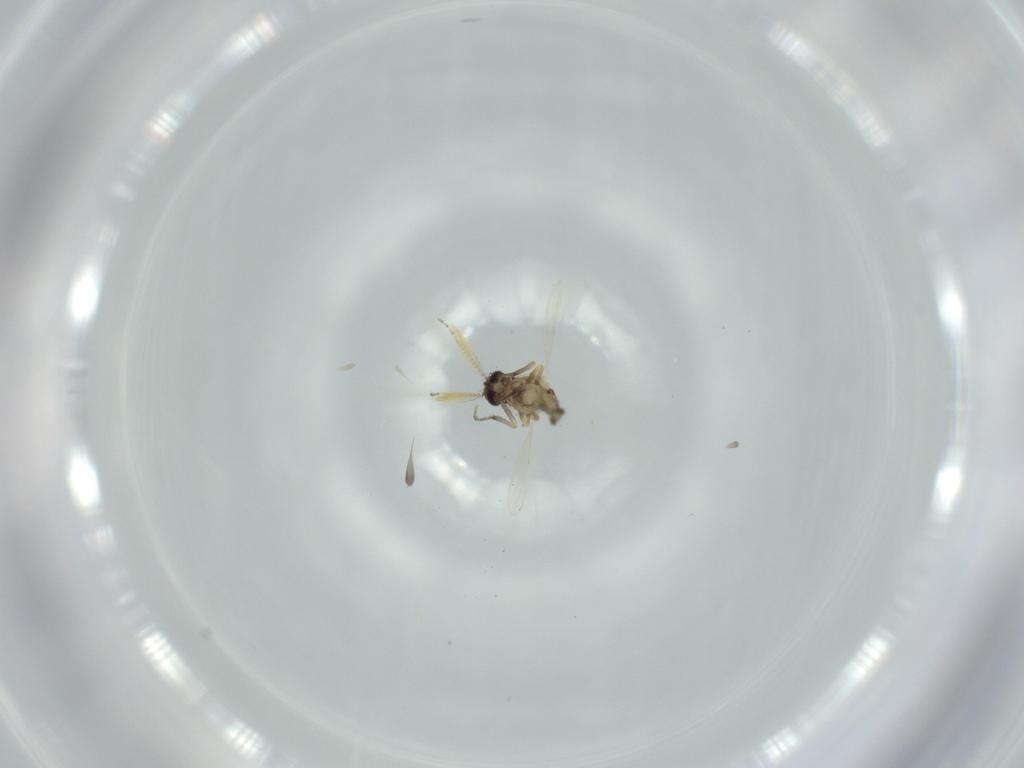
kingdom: Animalia
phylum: Arthropoda
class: Insecta
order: Diptera
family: Ceratopogonidae
